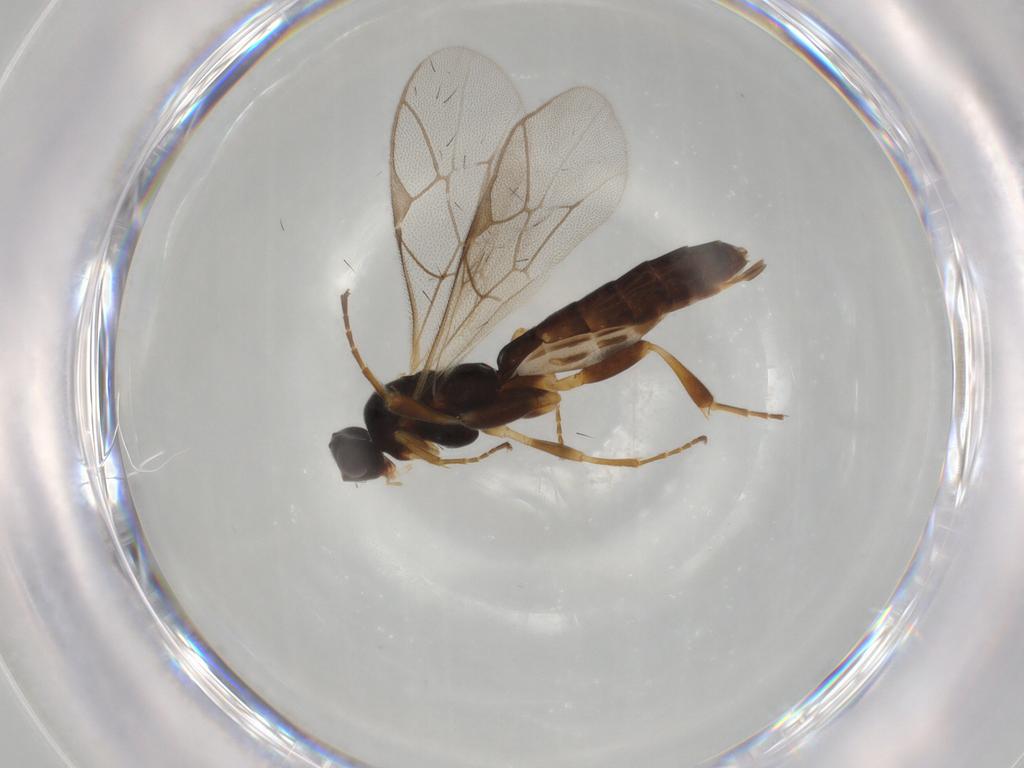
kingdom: Animalia
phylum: Arthropoda
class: Insecta
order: Hymenoptera
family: Ichneumonidae
